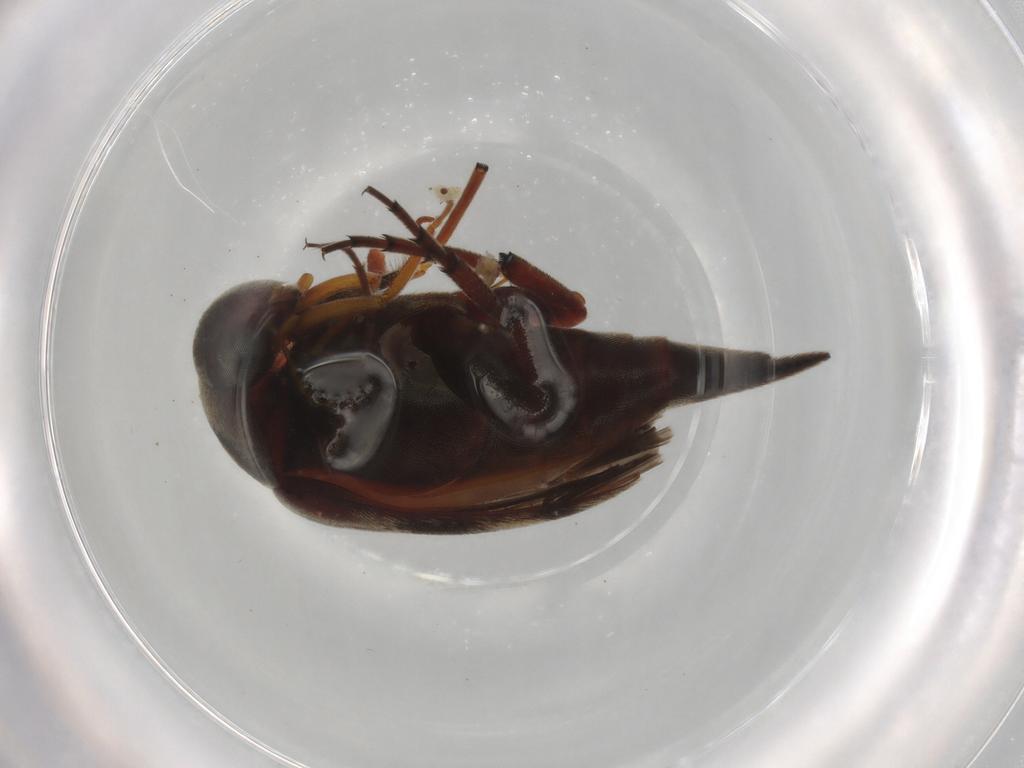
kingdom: Animalia
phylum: Arthropoda
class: Insecta
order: Coleoptera
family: Mordellidae
